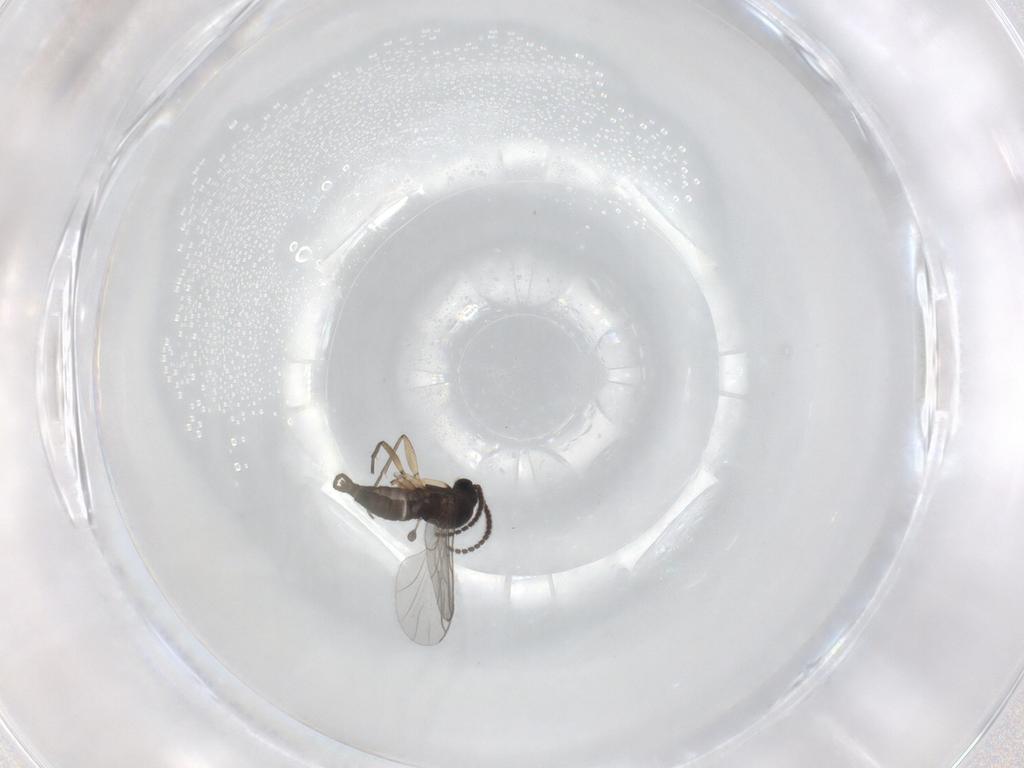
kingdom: Animalia
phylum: Arthropoda
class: Insecta
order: Diptera
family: Sciaridae
